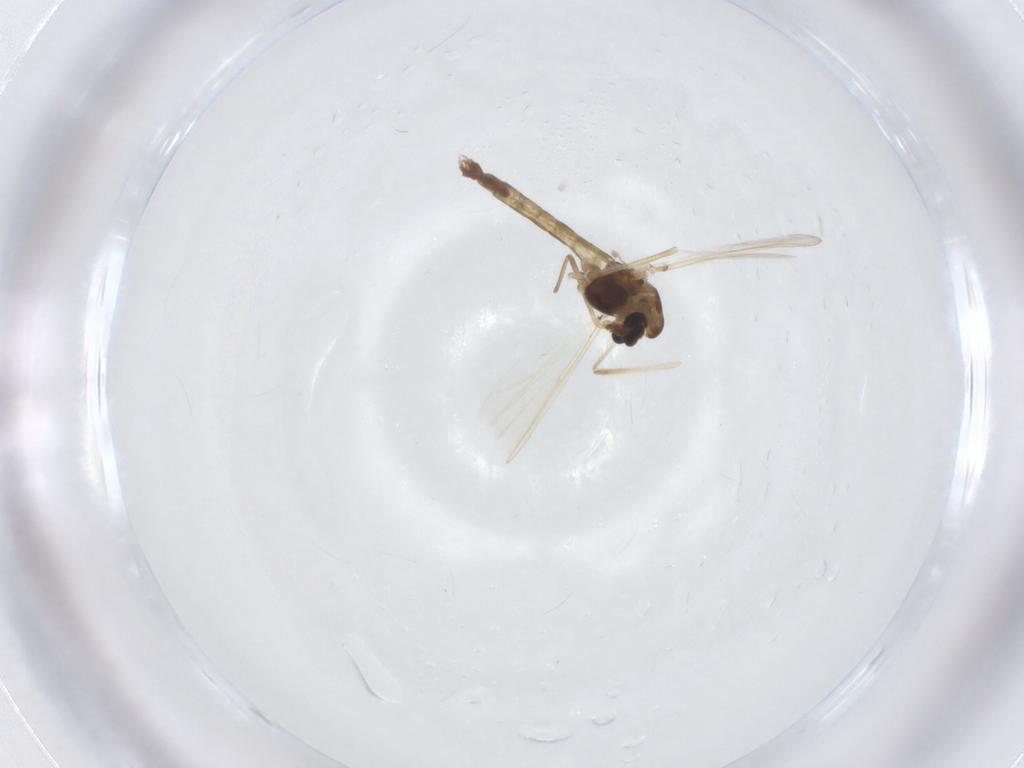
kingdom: Animalia
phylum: Arthropoda
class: Insecta
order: Diptera
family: Chironomidae
